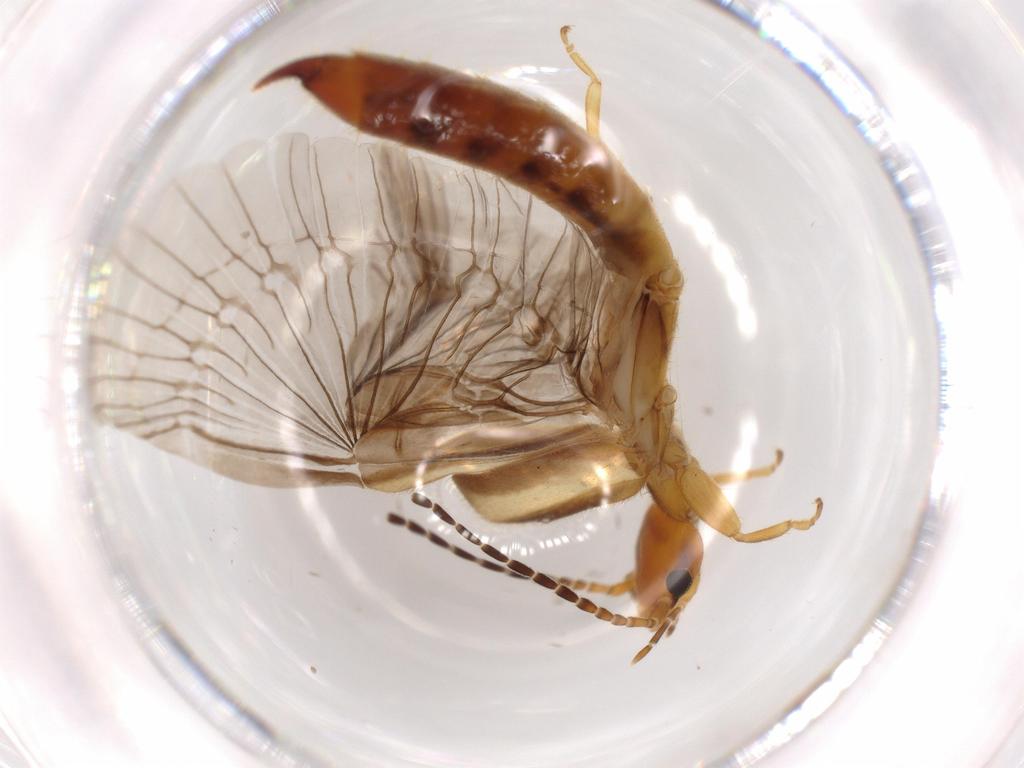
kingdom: Animalia
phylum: Arthropoda
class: Insecta
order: Dermaptera
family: Forficulidae
